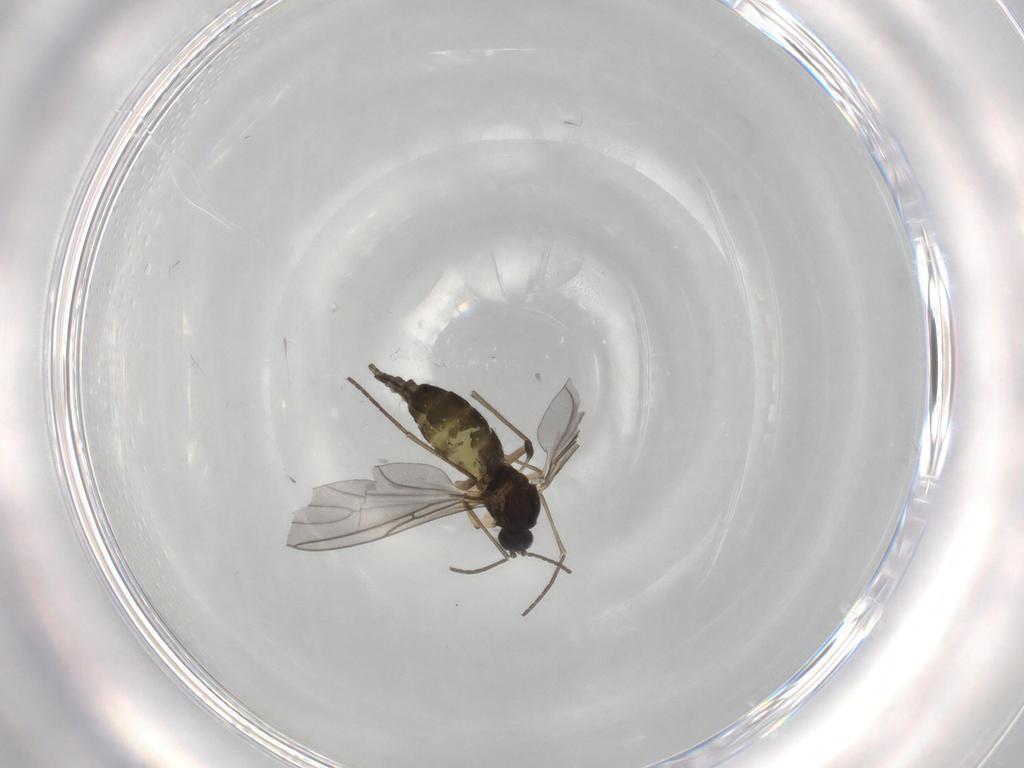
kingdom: Animalia
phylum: Arthropoda
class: Insecta
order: Diptera
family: Sciaridae
